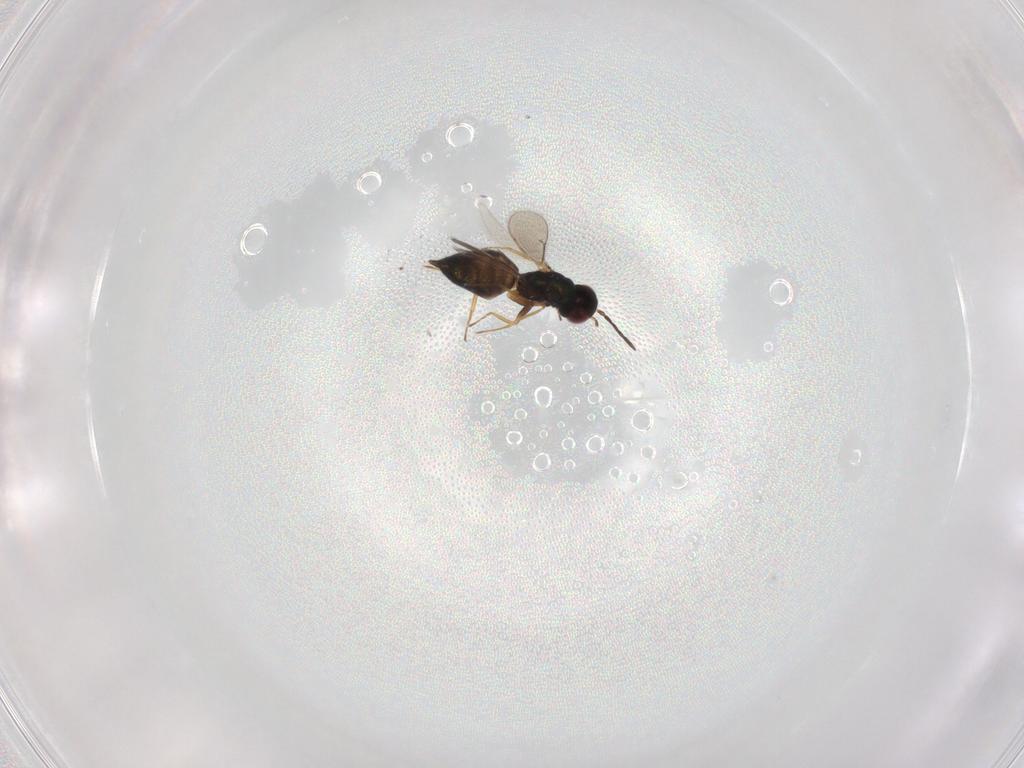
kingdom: Animalia
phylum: Arthropoda
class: Insecta
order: Hymenoptera
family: Eulophidae
